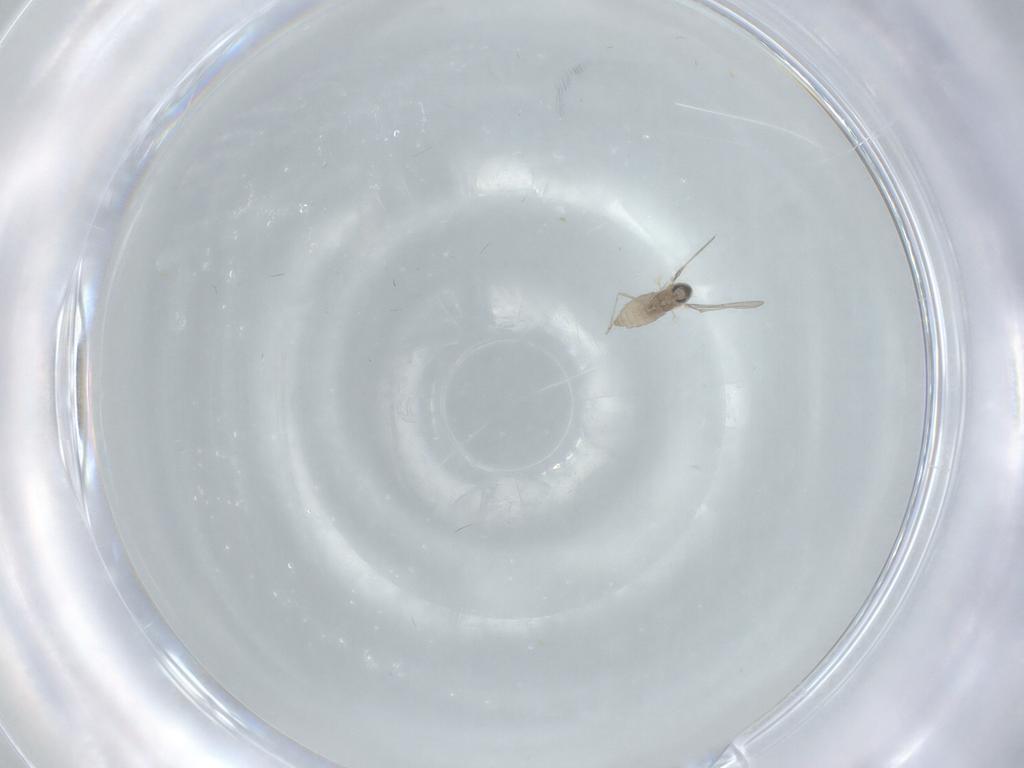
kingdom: Animalia
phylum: Arthropoda
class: Insecta
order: Diptera
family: Cecidomyiidae
